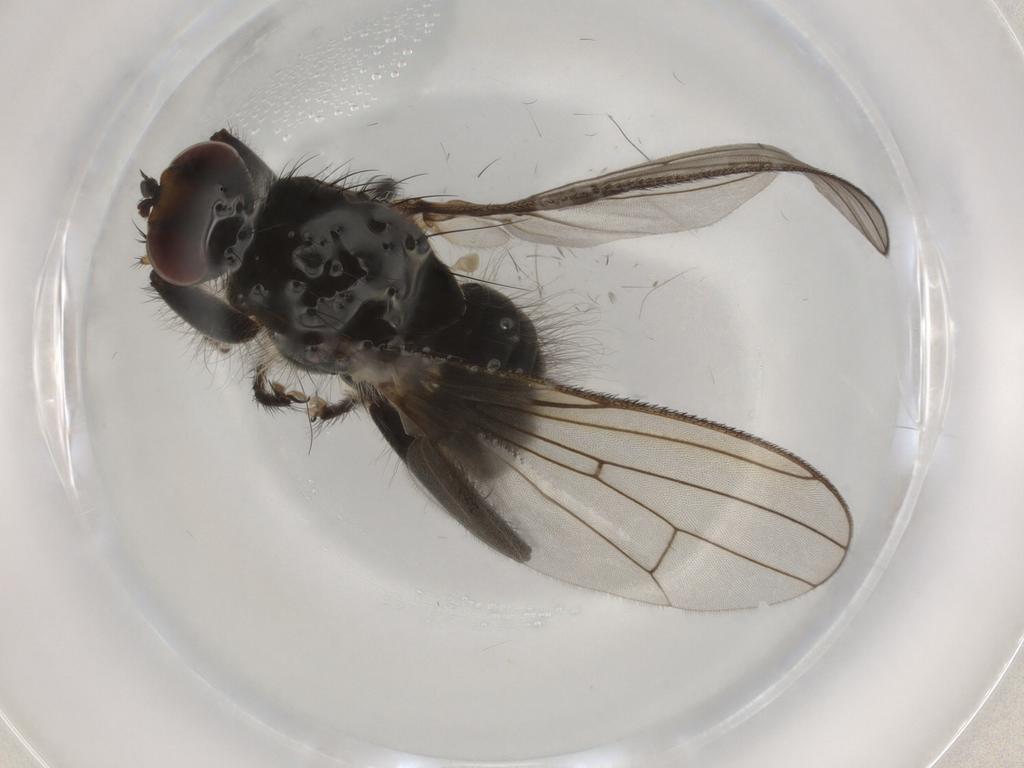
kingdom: Animalia
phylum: Arthropoda
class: Insecta
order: Diptera
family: Scathophagidae
